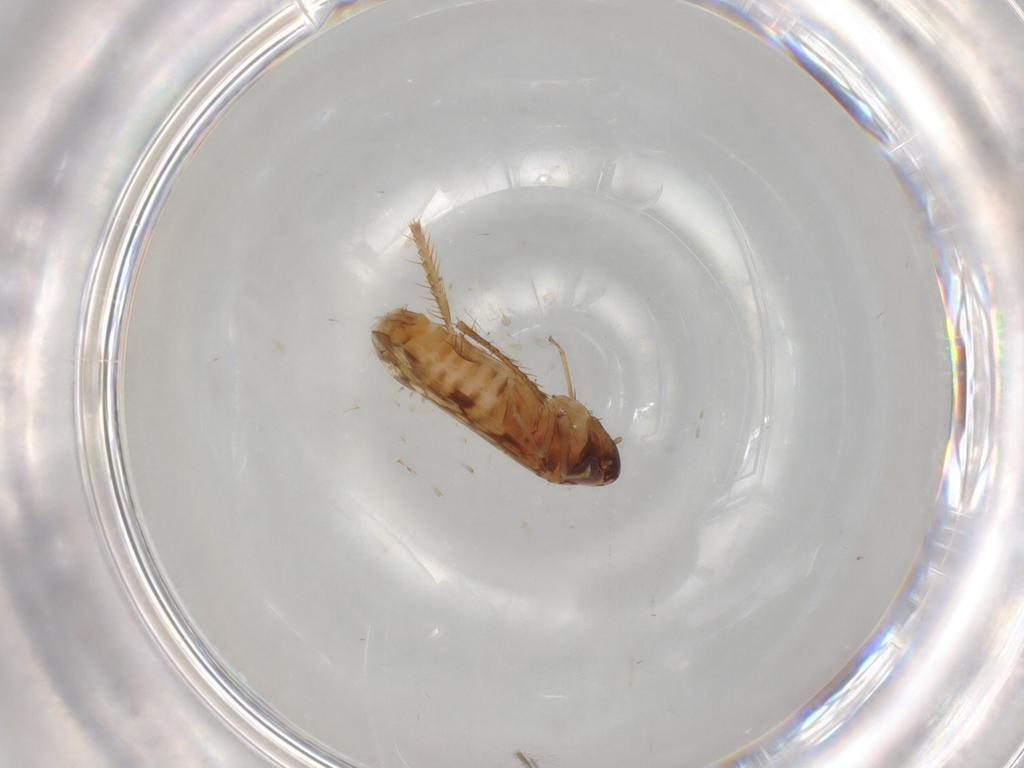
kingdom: Animalia
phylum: Arthropoda
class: Insecta
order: Hemiptera
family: Cicadellidae
